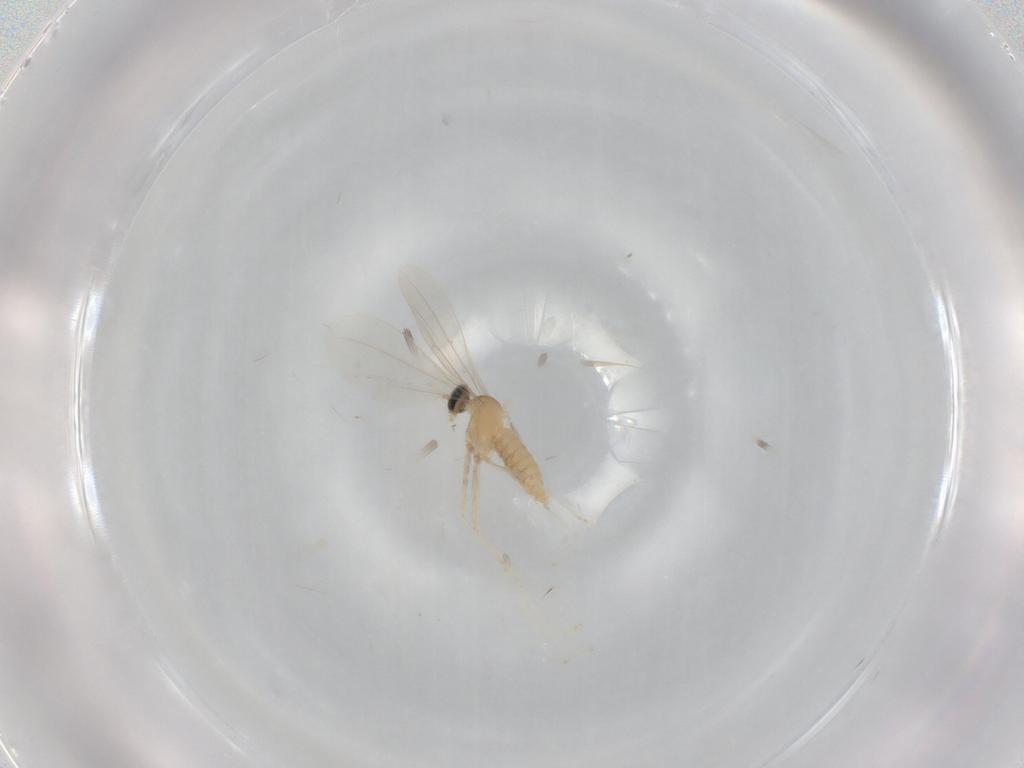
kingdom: Animalia
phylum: Arthropoda
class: Insecta
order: Diptera
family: Cecidomyiidae
